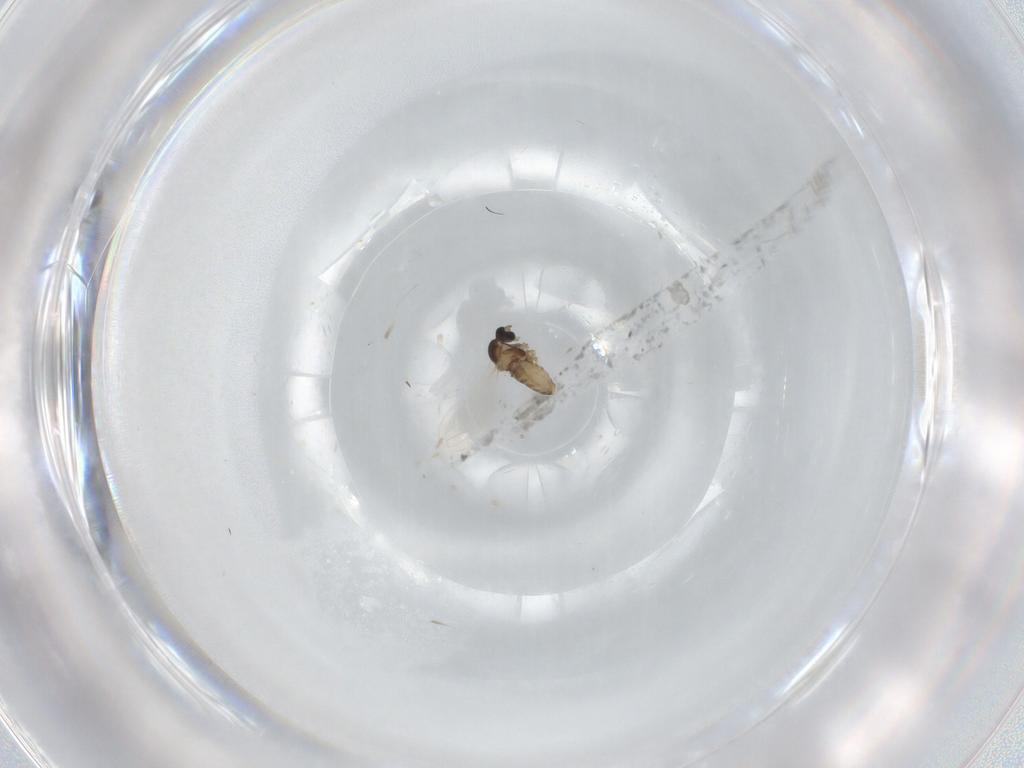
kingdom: Animalia
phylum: Arthropoda
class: Insecta
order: Diptera
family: Cecidomyiidae
